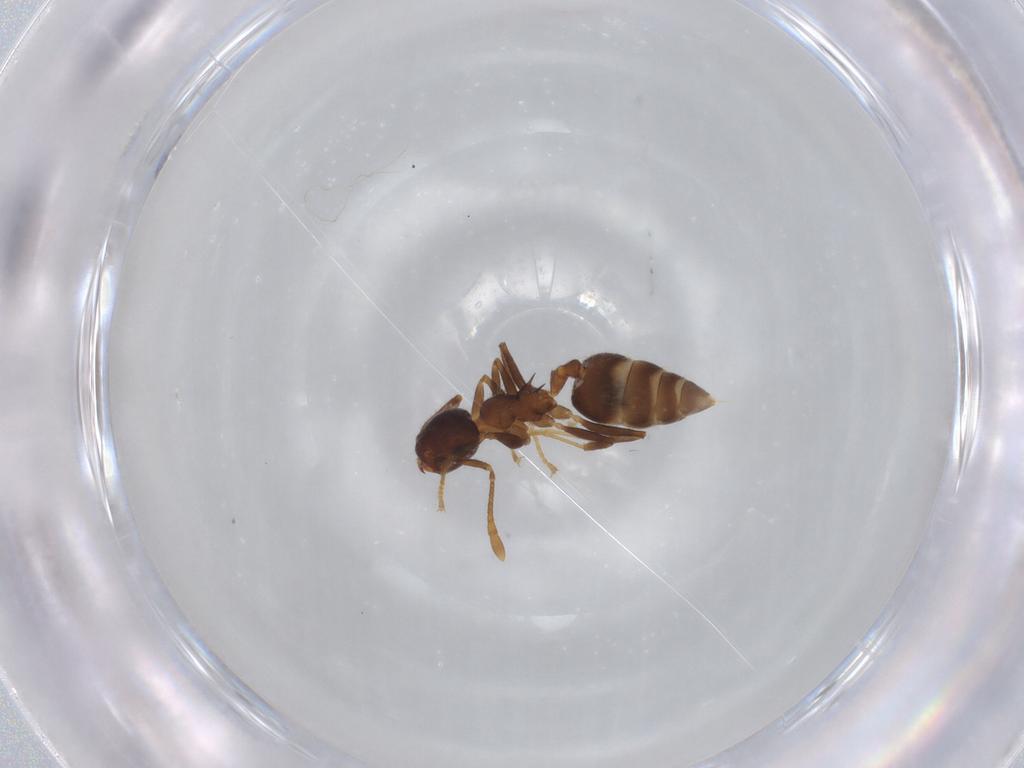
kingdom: Animalia
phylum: Arthropoda
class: Insecta
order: Hymenoptera
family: Formicidae
